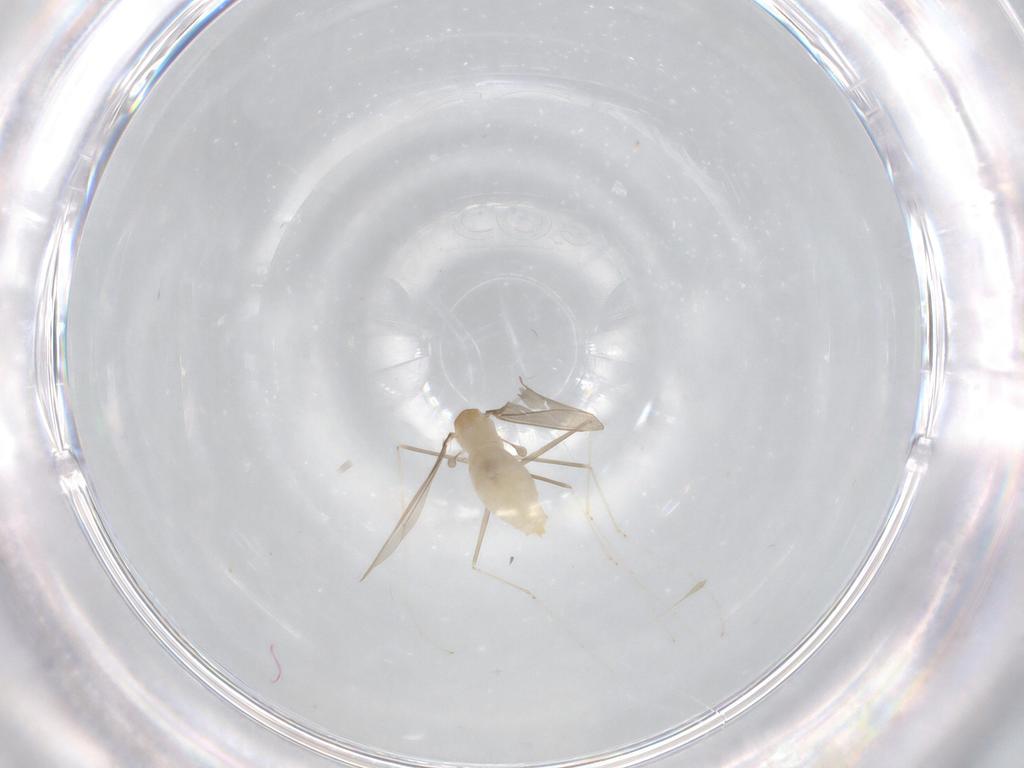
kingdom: Animalia
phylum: Arthropoda
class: Insecta
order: Diptera
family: Cecidomyiidae
